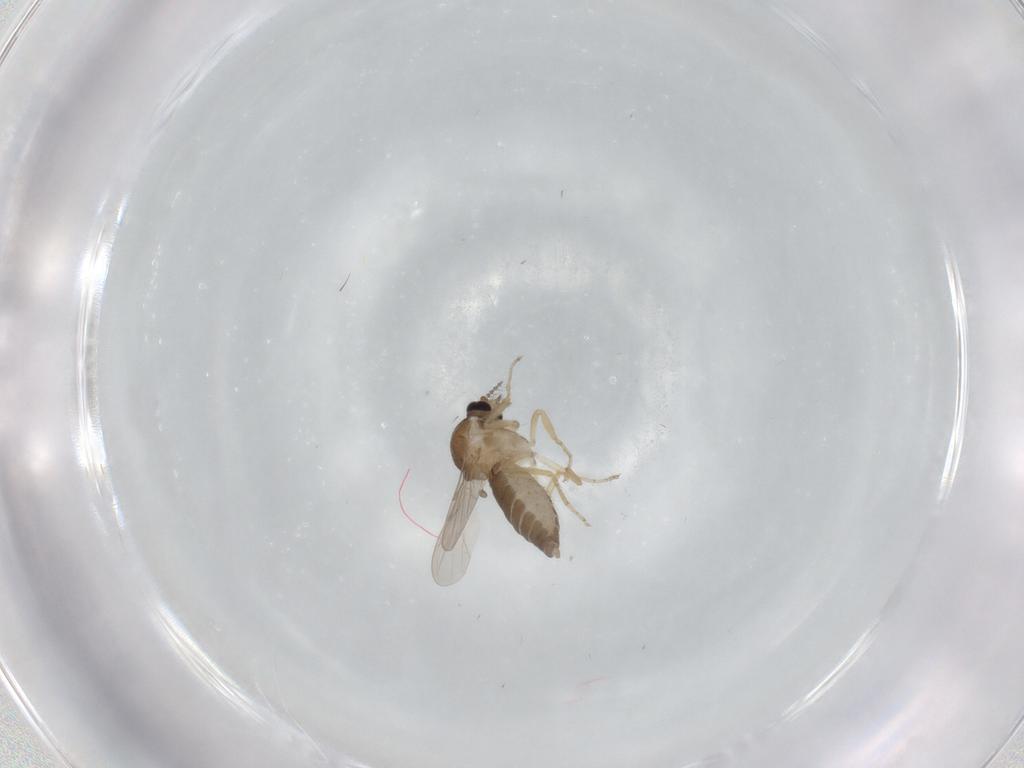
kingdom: Animalia
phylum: Arthropoda
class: Insecta
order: Diptera
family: Ceratopogonidae
